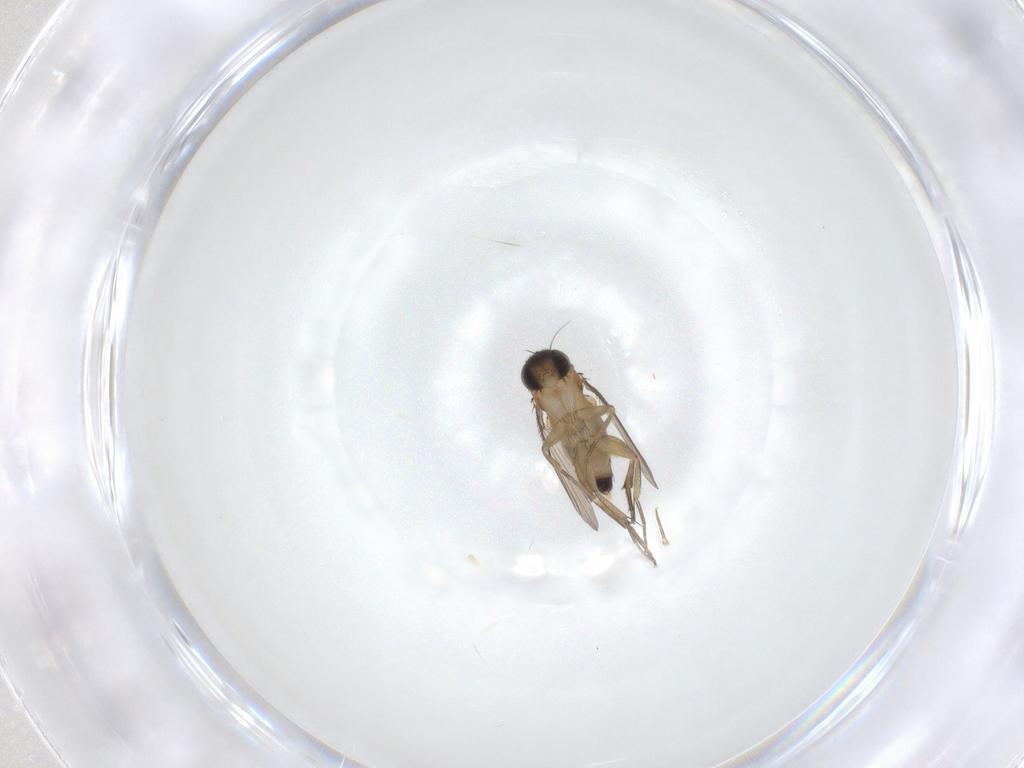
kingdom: Animalia
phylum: Arthropoda
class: Insecta
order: Diptera
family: Phoridae
